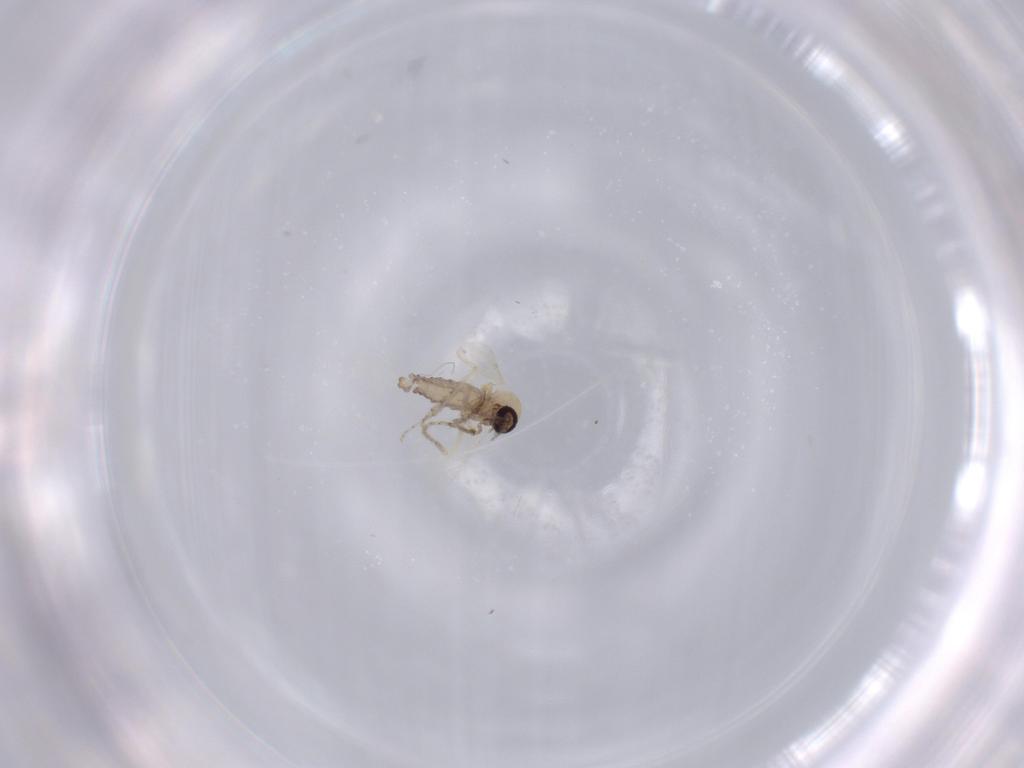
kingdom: Animalia
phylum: Arthropoda
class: Insecta
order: Diptera
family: Ceratopogonidae
